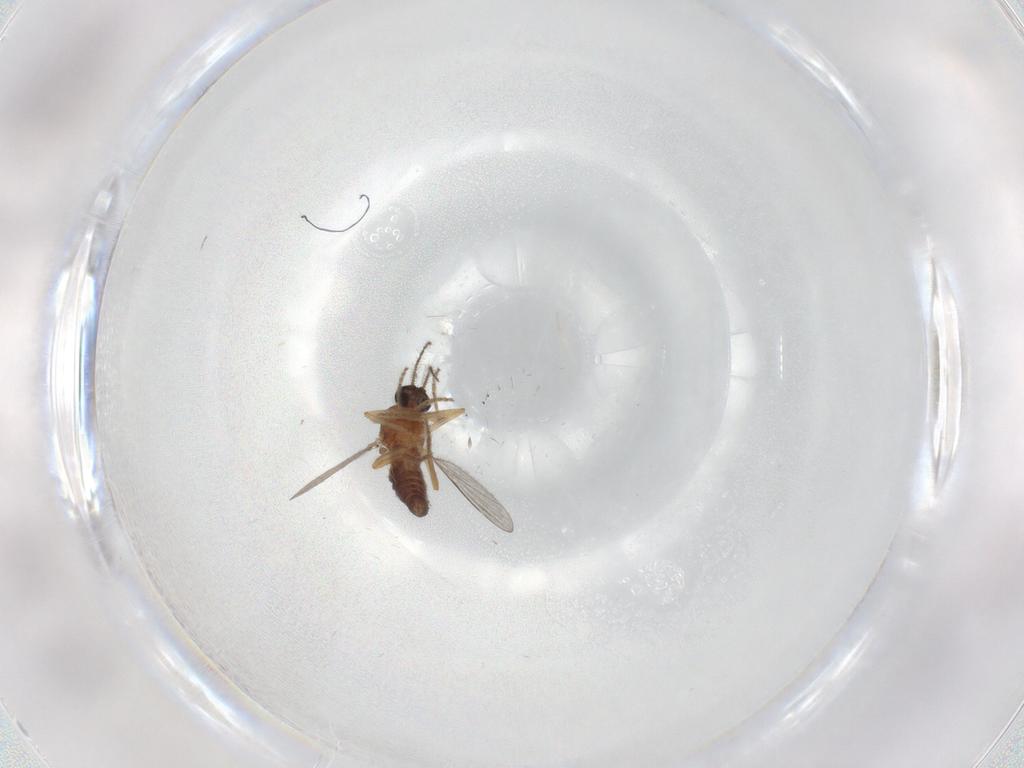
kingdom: Animalia
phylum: Arthropoda
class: Insecta
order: Diptera
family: Ceratopogonidae
